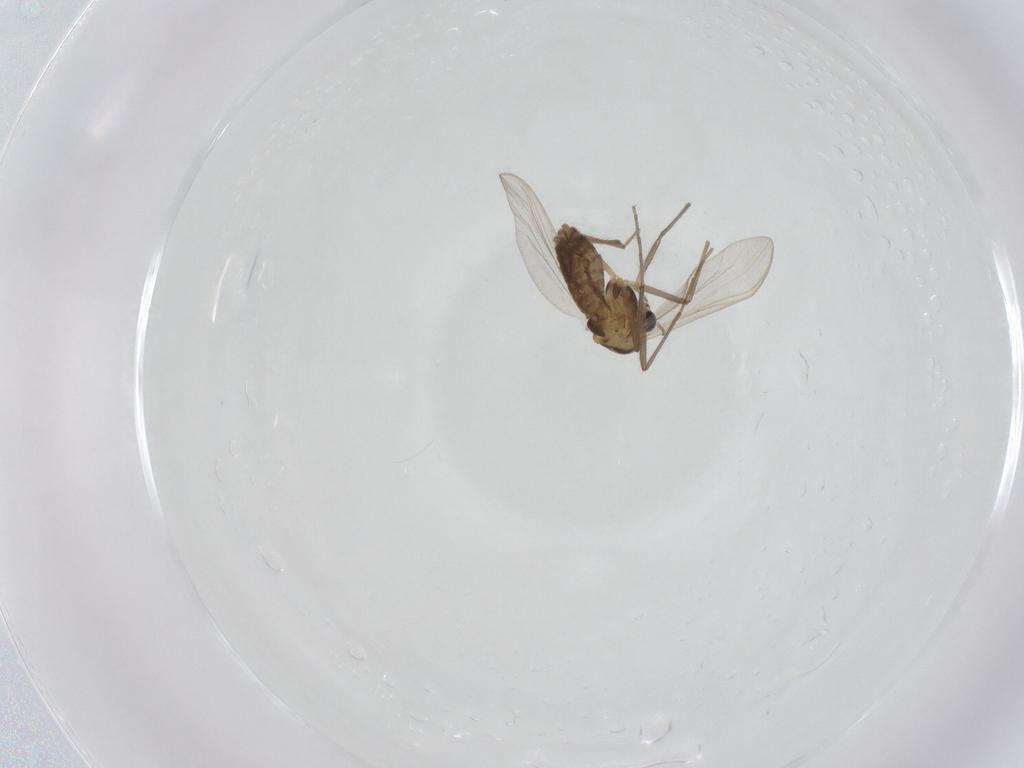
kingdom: Animalia
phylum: Arthropoda
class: Insecta
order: Diptera
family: Chironomidae
